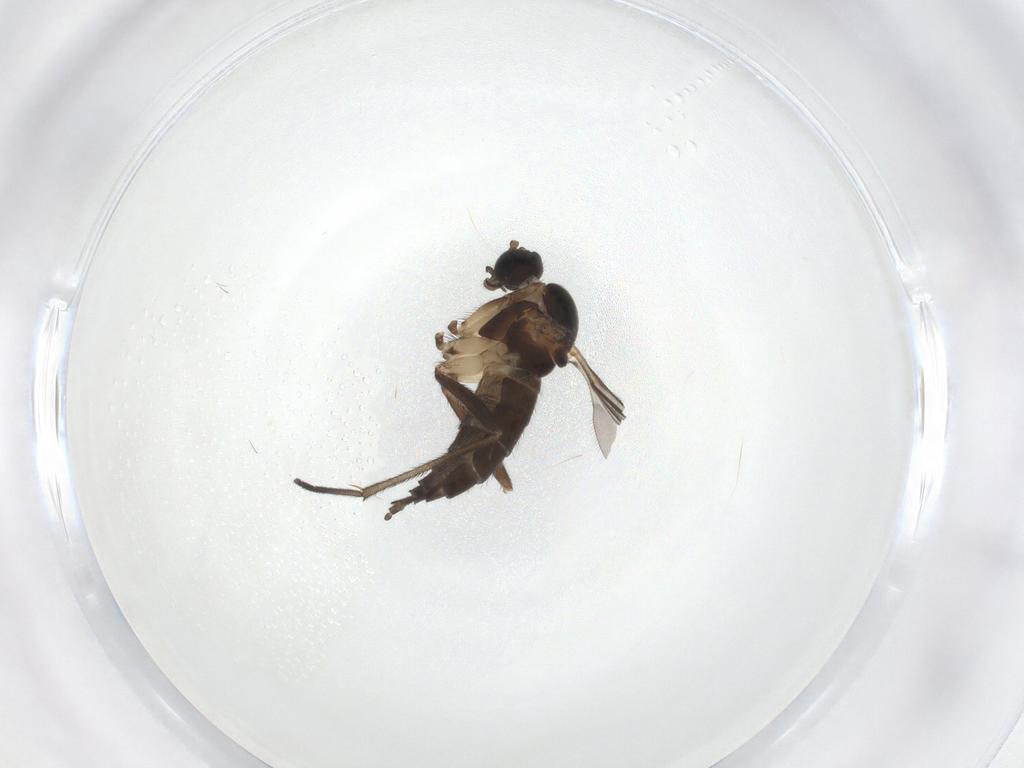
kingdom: Animalia
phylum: Arthropoda
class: Insecta
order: Diptera
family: Sciaridae
